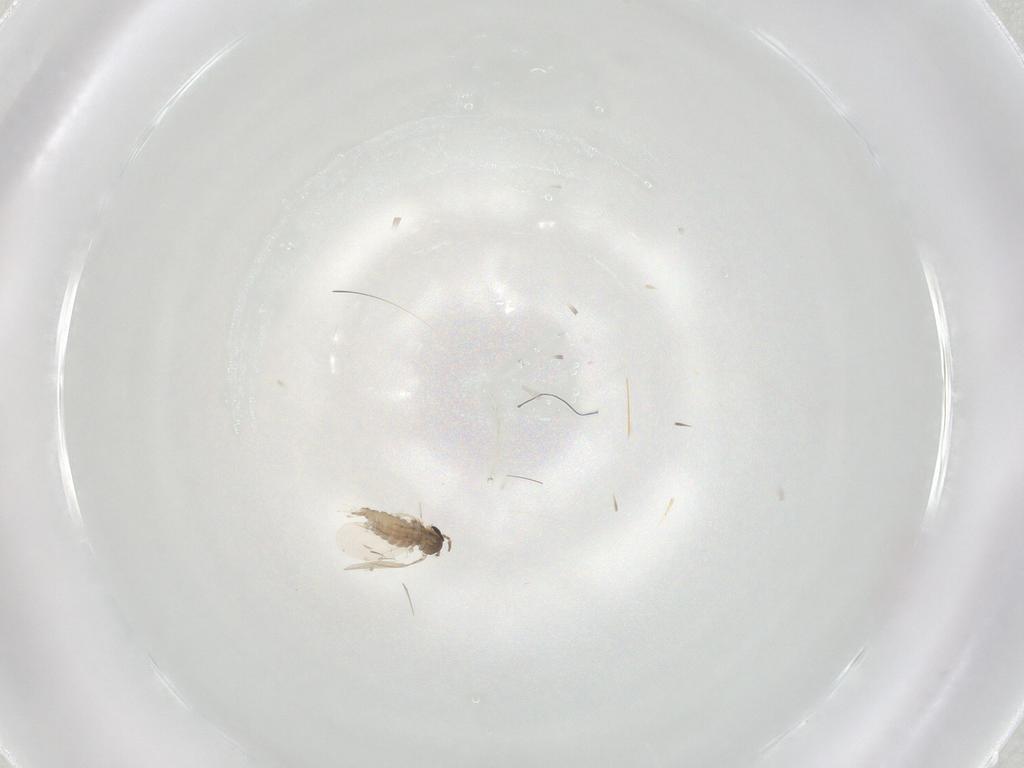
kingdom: Animalia
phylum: Arthropoda
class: Insecta
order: Diptera
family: Cecidomyiidae
